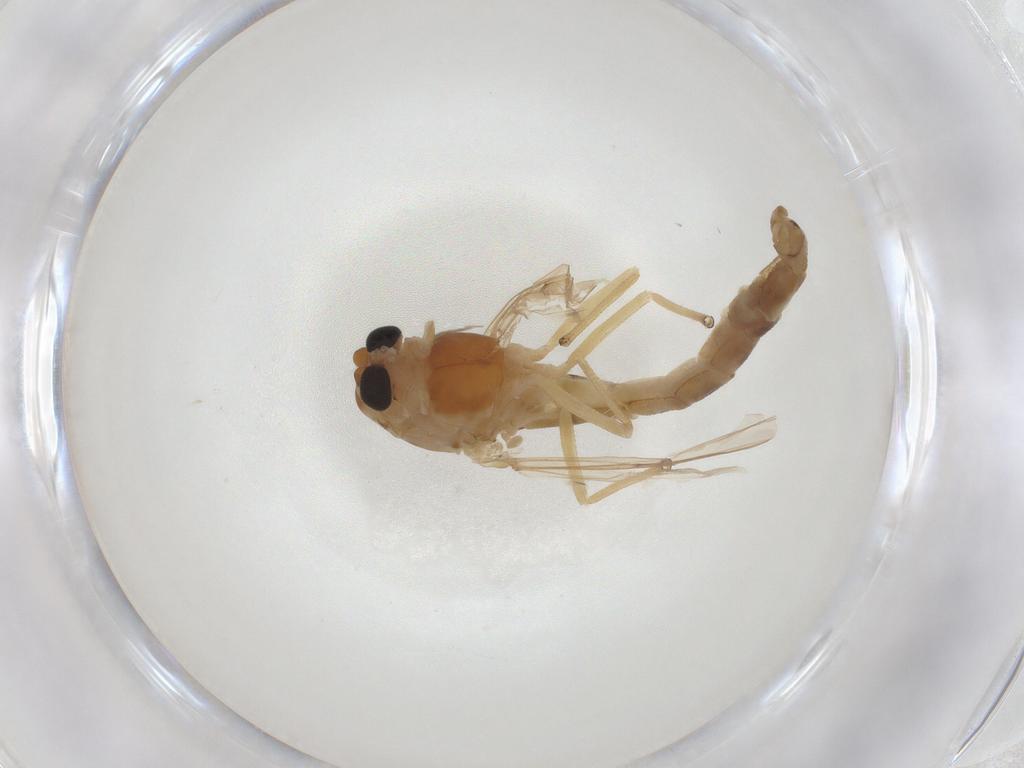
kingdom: Animalia
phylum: Arthropoda
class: Insecta
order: Diptera
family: Chironomidae
